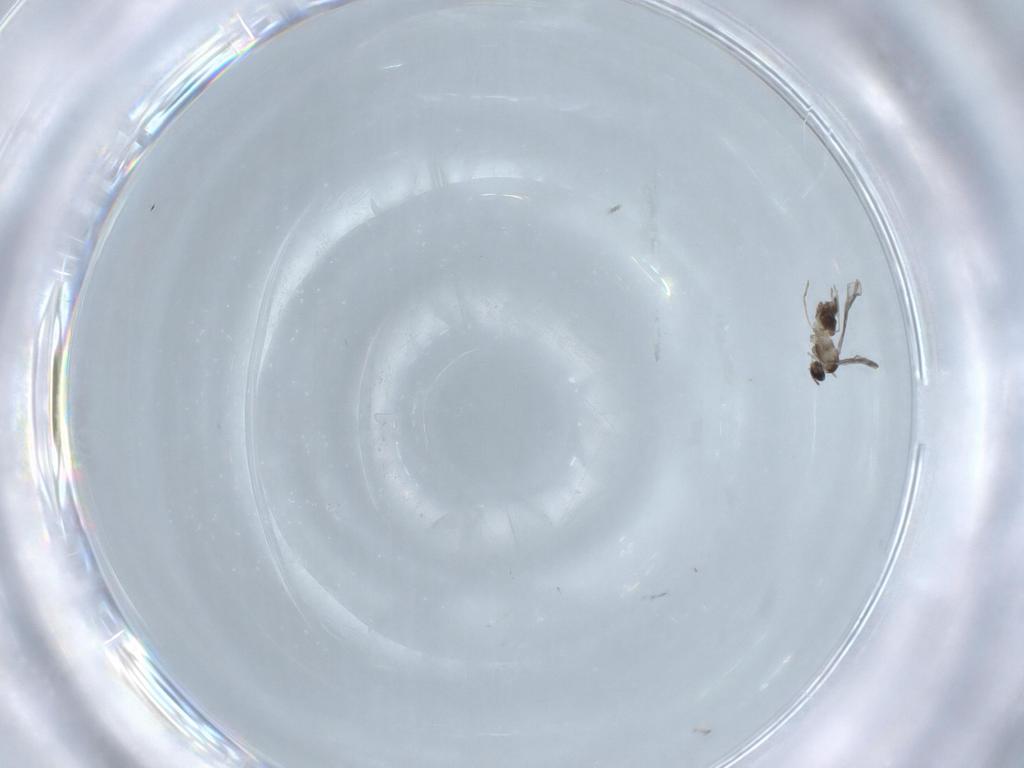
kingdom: Animalia
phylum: Arthropoda
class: Insecta
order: Diptera
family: Cecidomyiidae
